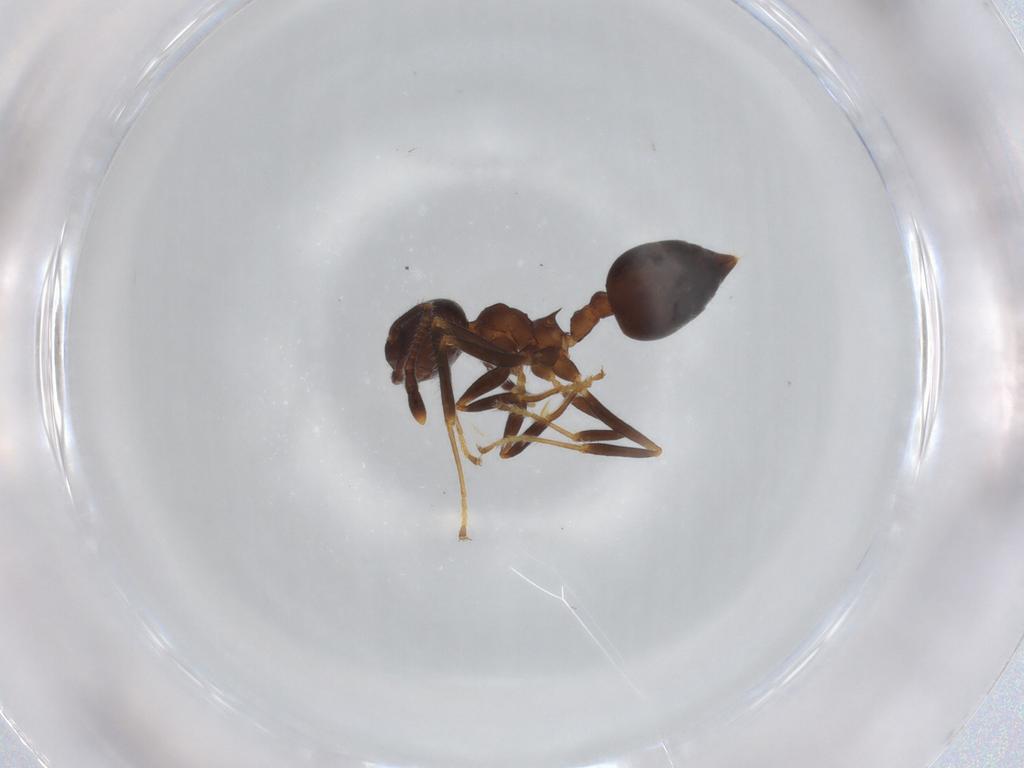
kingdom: Animalia
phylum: Arthropoda
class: Insecta
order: Hymenoptera
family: Formicidae
